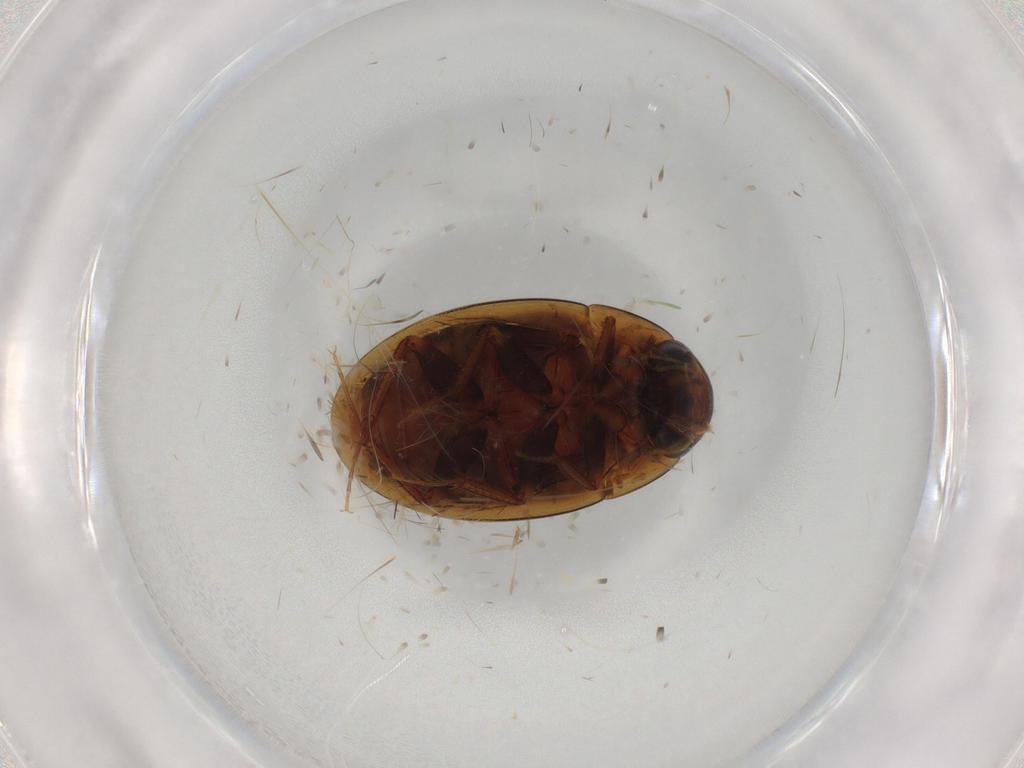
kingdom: Animalia
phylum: Arthropoda
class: Insecta
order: Coleoptera
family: Hydrophilidae
